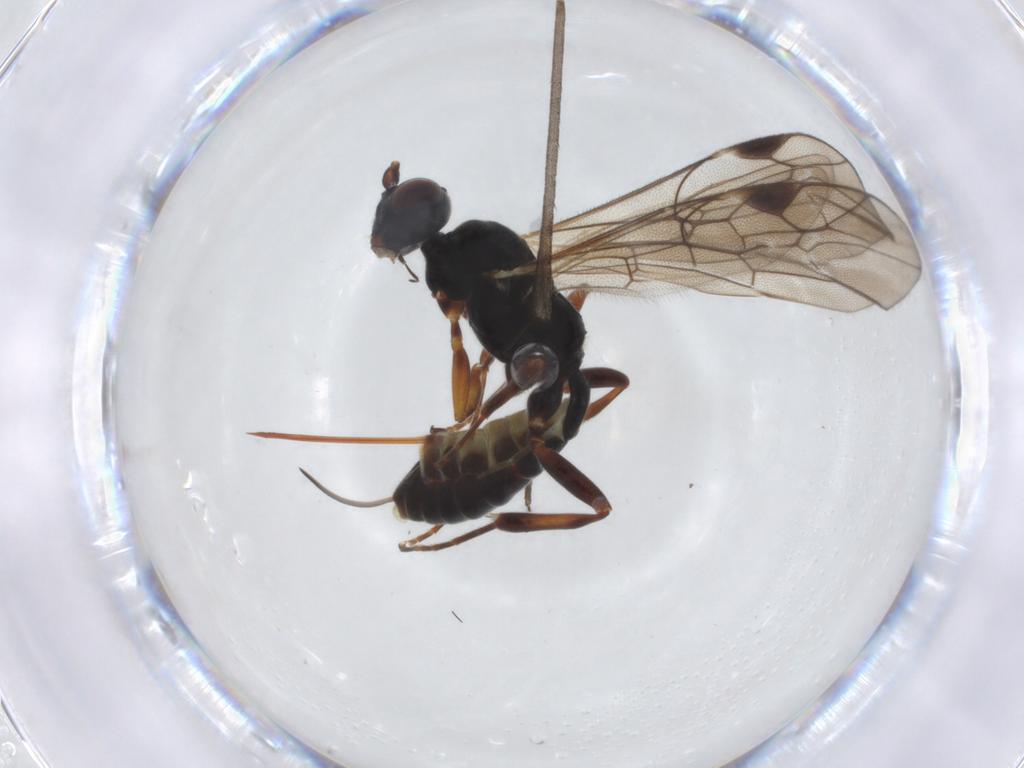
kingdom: Animalia
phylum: Arthropoda
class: Insecta
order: Hymenoptera
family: Ichneumonidae
